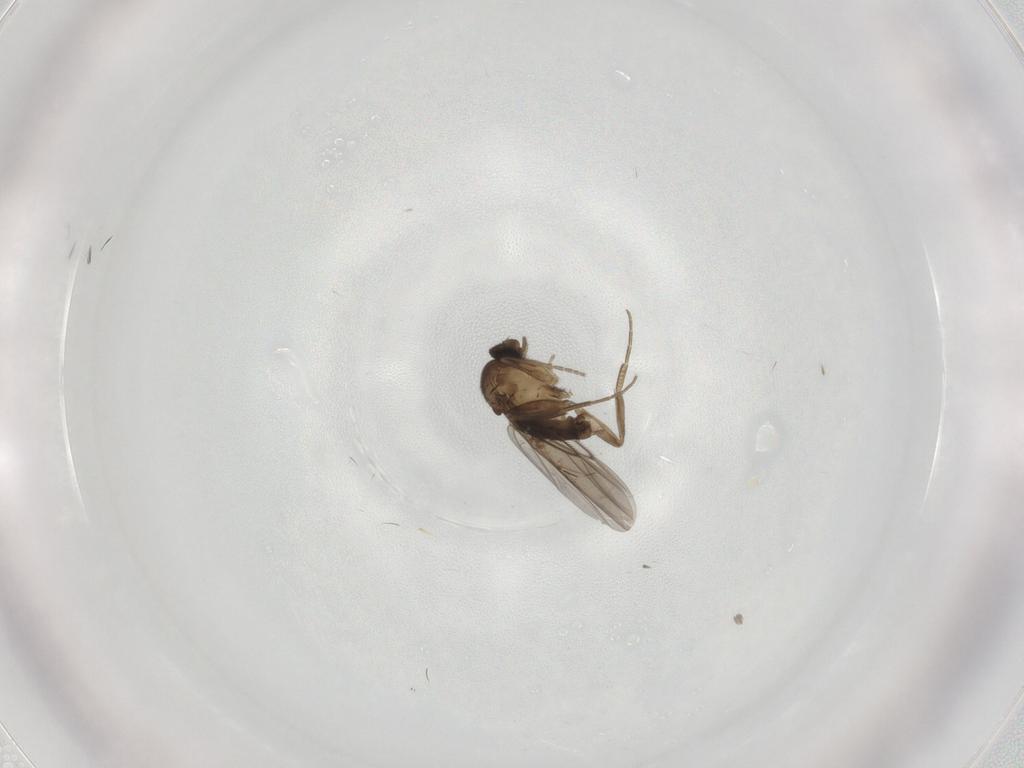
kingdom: Animalia
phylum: Arthropoda
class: Insecta
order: Diptera
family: Phoridae
